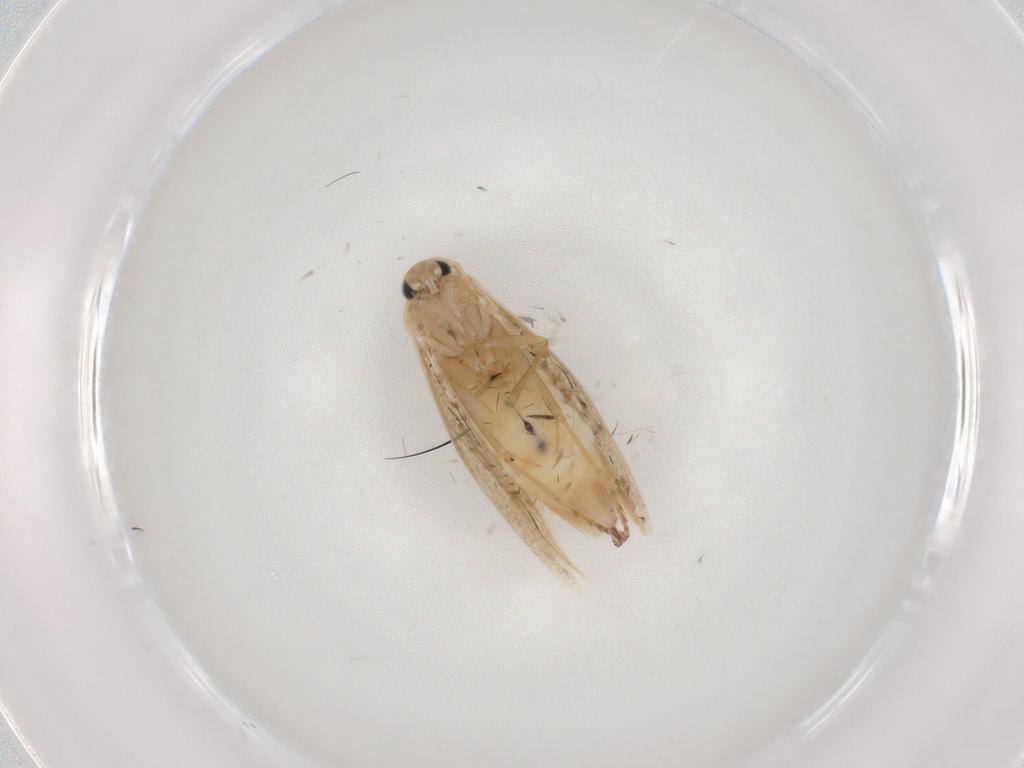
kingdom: Animalia
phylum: Arthropoda
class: Insecta
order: Lepidoptera
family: Bucculatricidae
